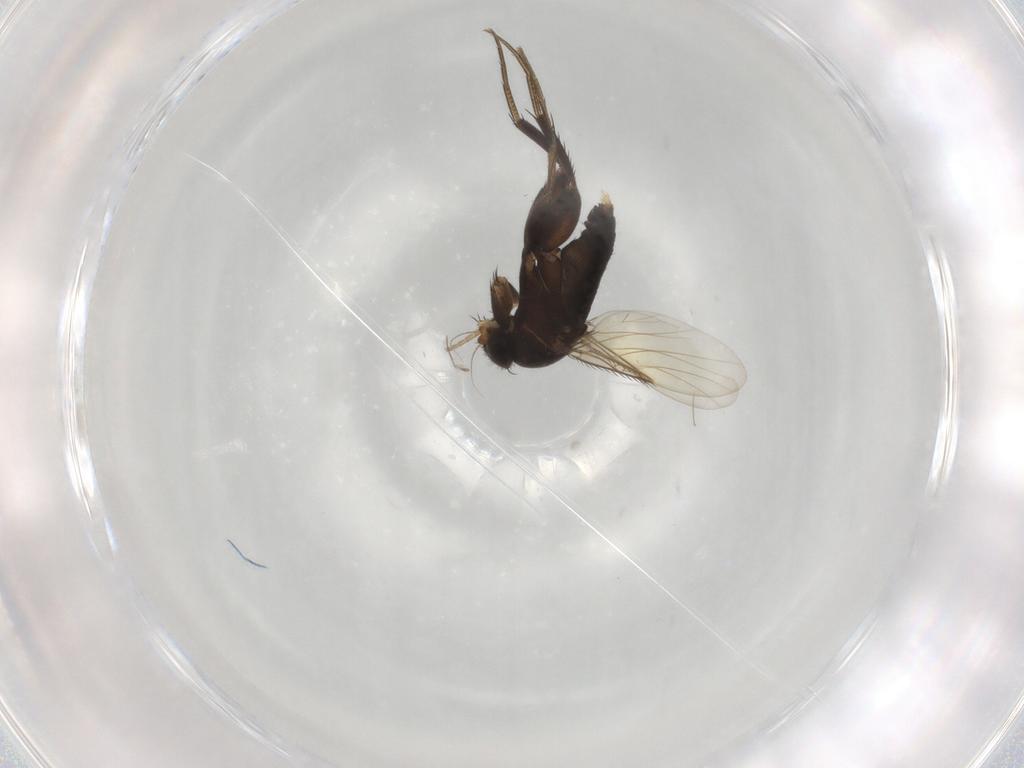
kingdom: Animalia
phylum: Arthropoda
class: Insecta
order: Diptera
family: Phoridae
